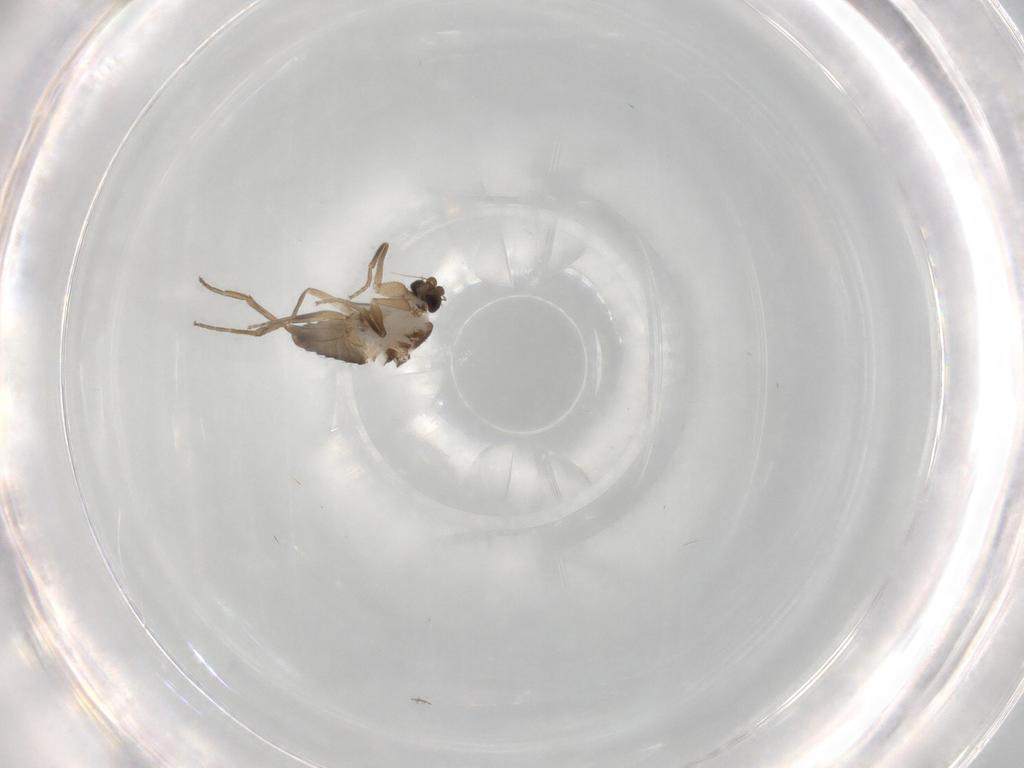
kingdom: Animalia
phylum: Arthropoda
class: Insecta
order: Diptera
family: Phoridae
